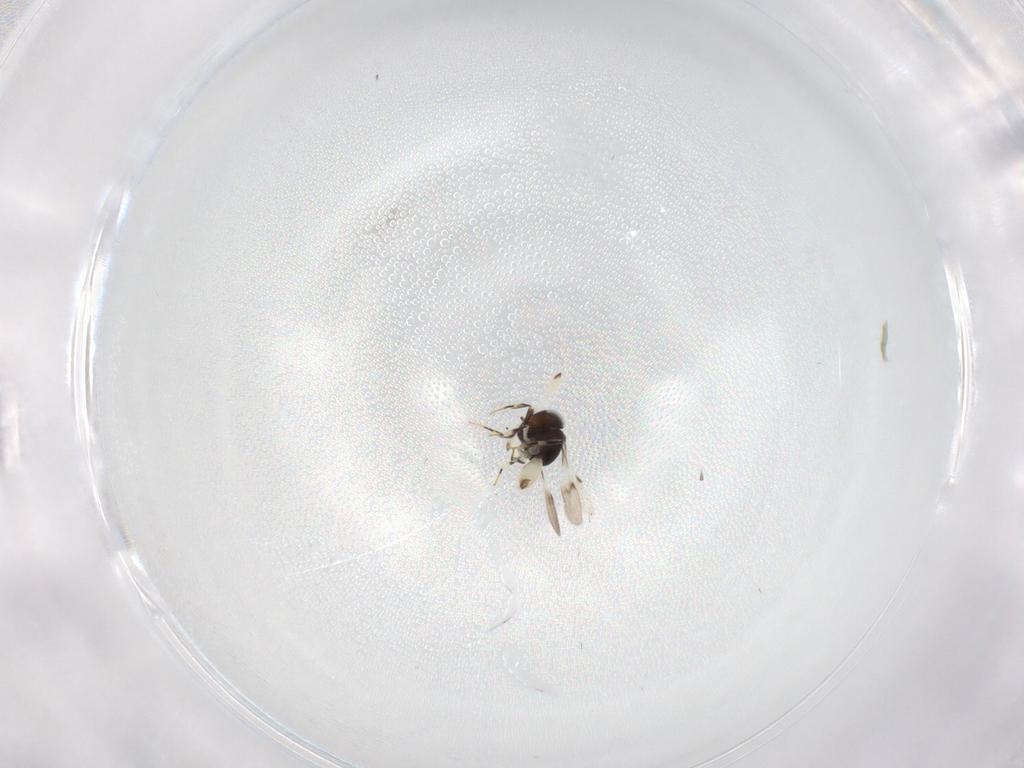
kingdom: Animalia
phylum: Arthropoda
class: Insecta
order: Hymenoptera
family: Scelionidae
